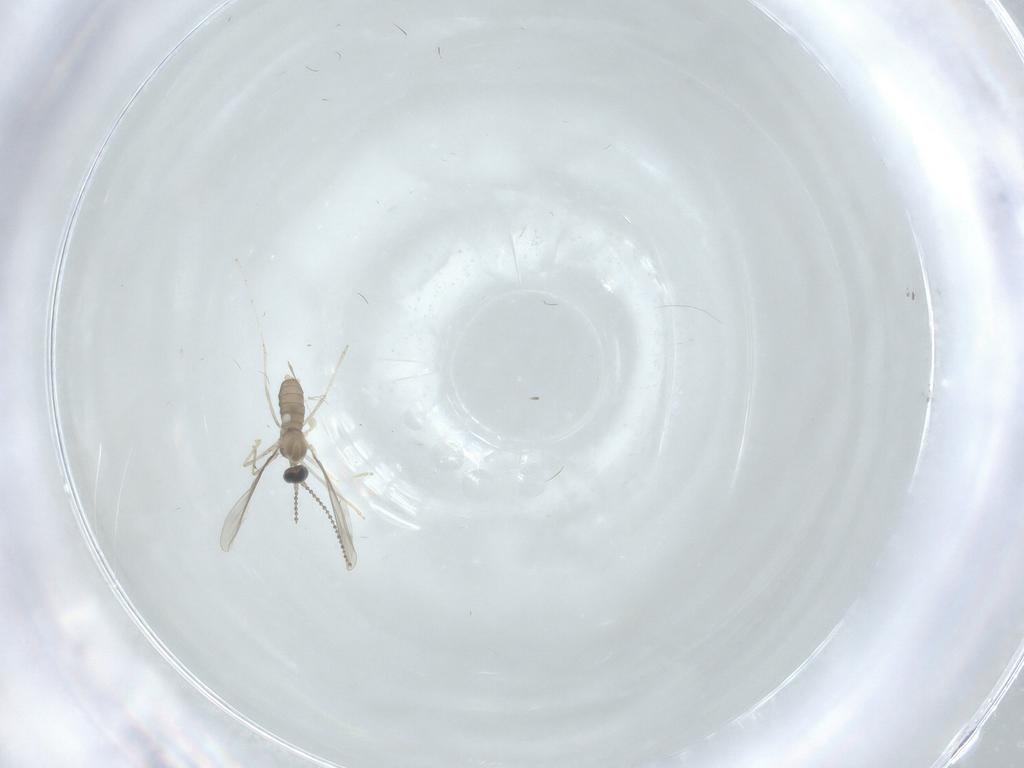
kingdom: Animalia
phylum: Arthropoda
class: Insecta
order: Diptera
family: Cecidomyiidae
